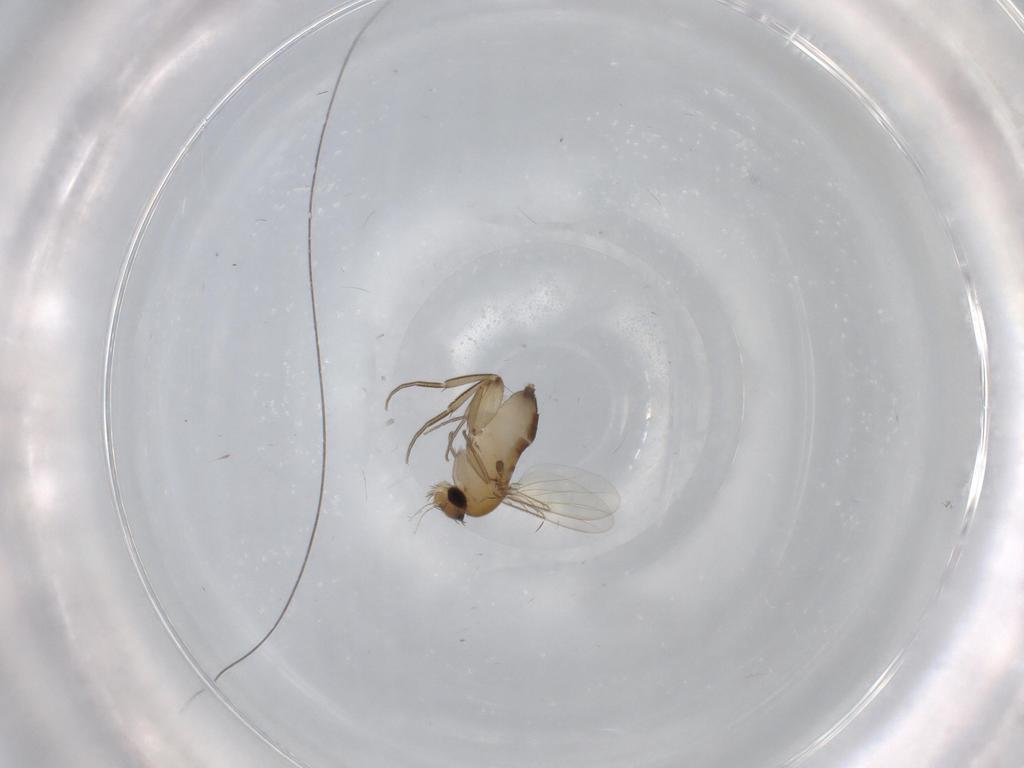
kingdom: Animalia
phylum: Arthropoda
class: Insecta
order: Diptera
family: Phoridae
